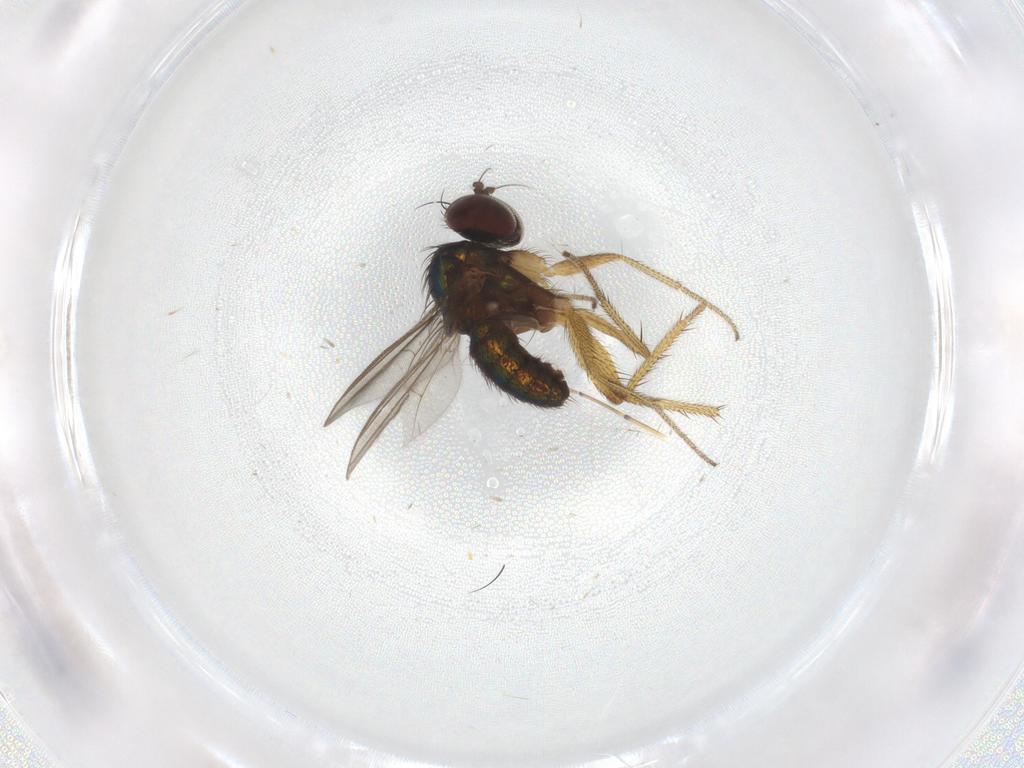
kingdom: Animalia
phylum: Arthropoda
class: Insecta
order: Diptera
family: Dolichopodidae
